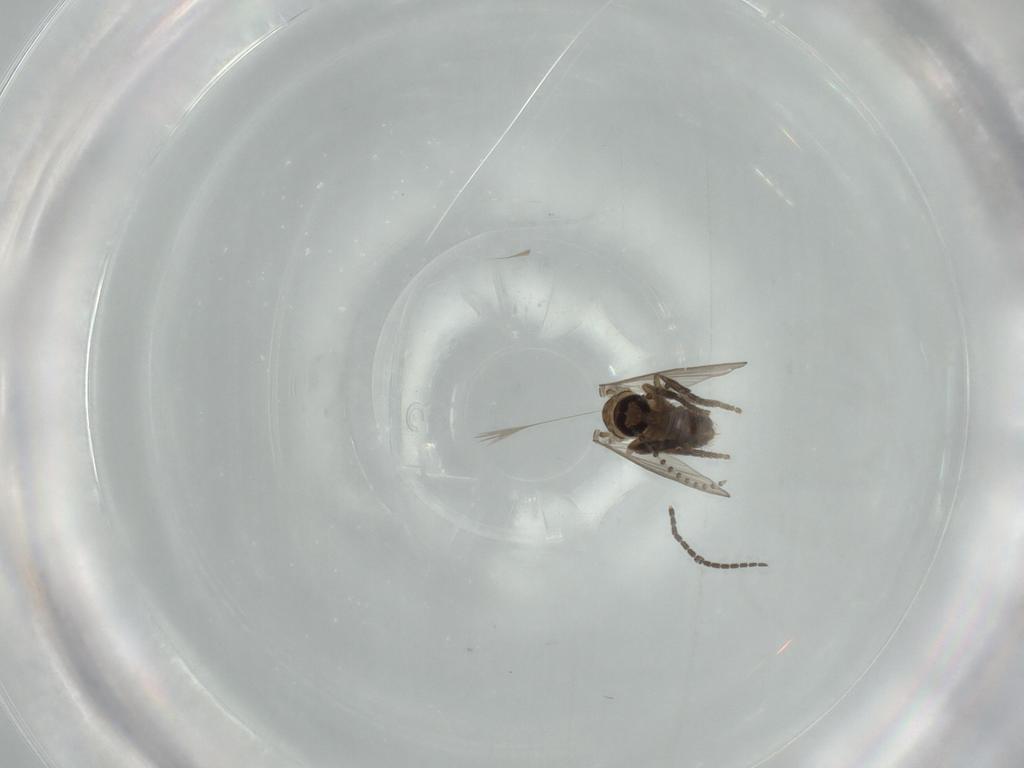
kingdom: Animalia
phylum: Arthropoda
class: Insecta
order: Diptera
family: Psychodidae
